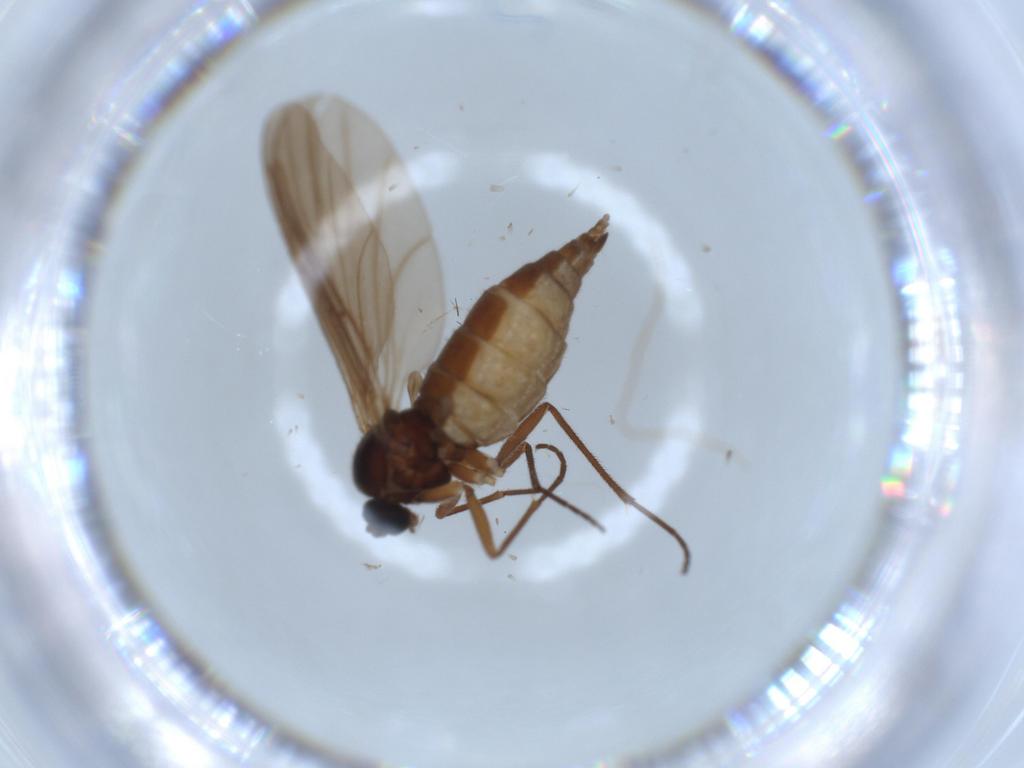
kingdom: Animalia
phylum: Arthropoda
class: Insecta
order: Diptera
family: Sciaridae
